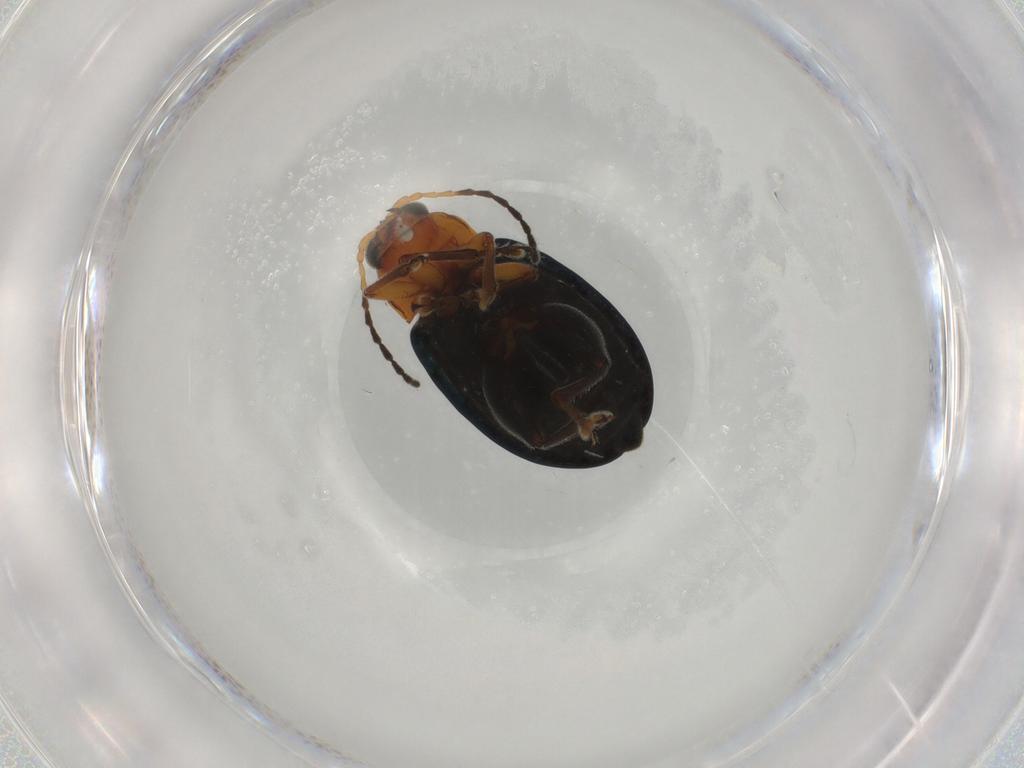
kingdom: Animalia
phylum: Arthropoda
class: Insecta
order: Coleoptera
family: Chrysomelidae
